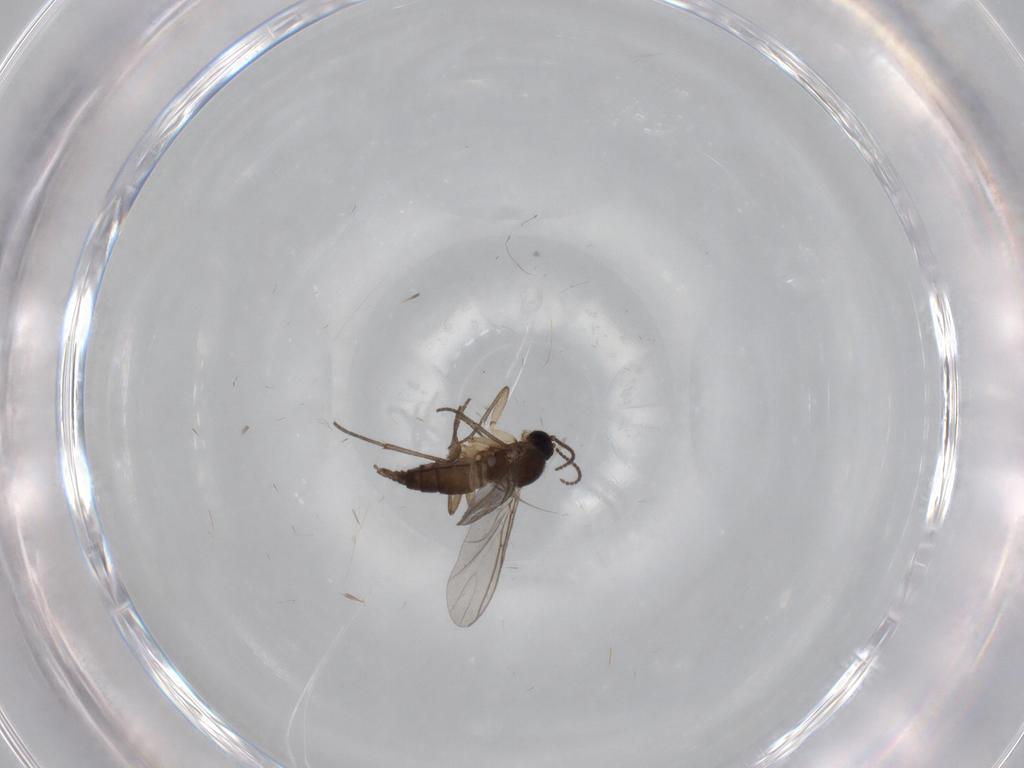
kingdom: Animalia
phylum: Arthropoda
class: Insecta
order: Diptera
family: Sciaridae
